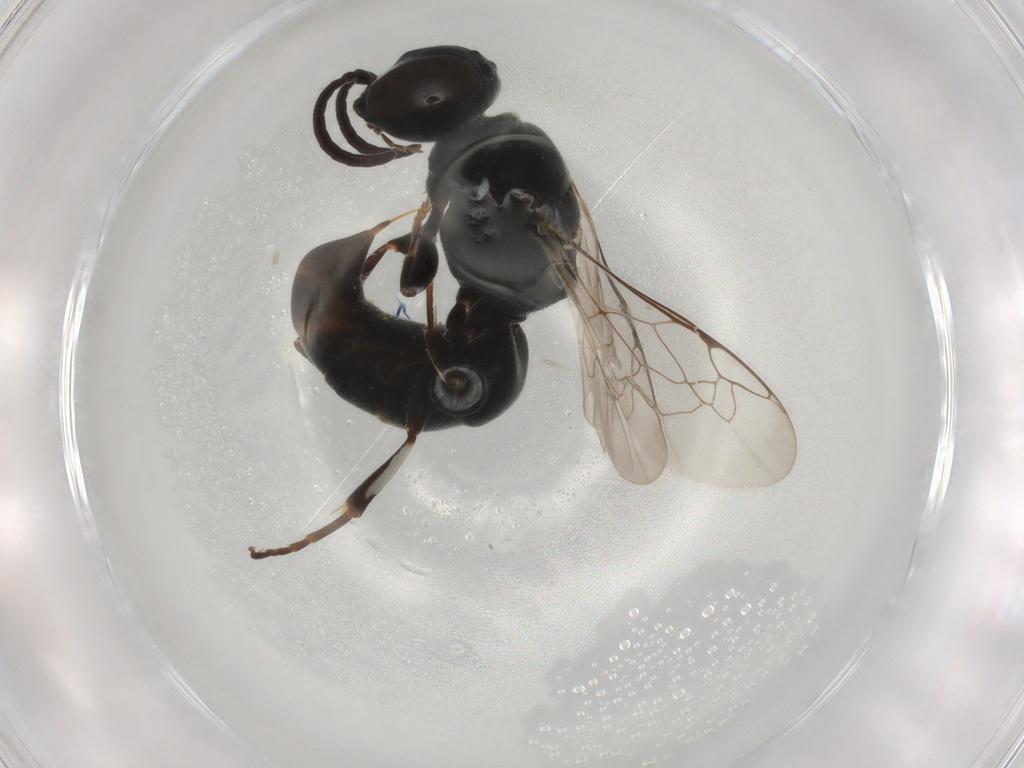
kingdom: Animalia
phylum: Arthropoda
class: Insecta
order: Hymenoptera
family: Crabronidae
